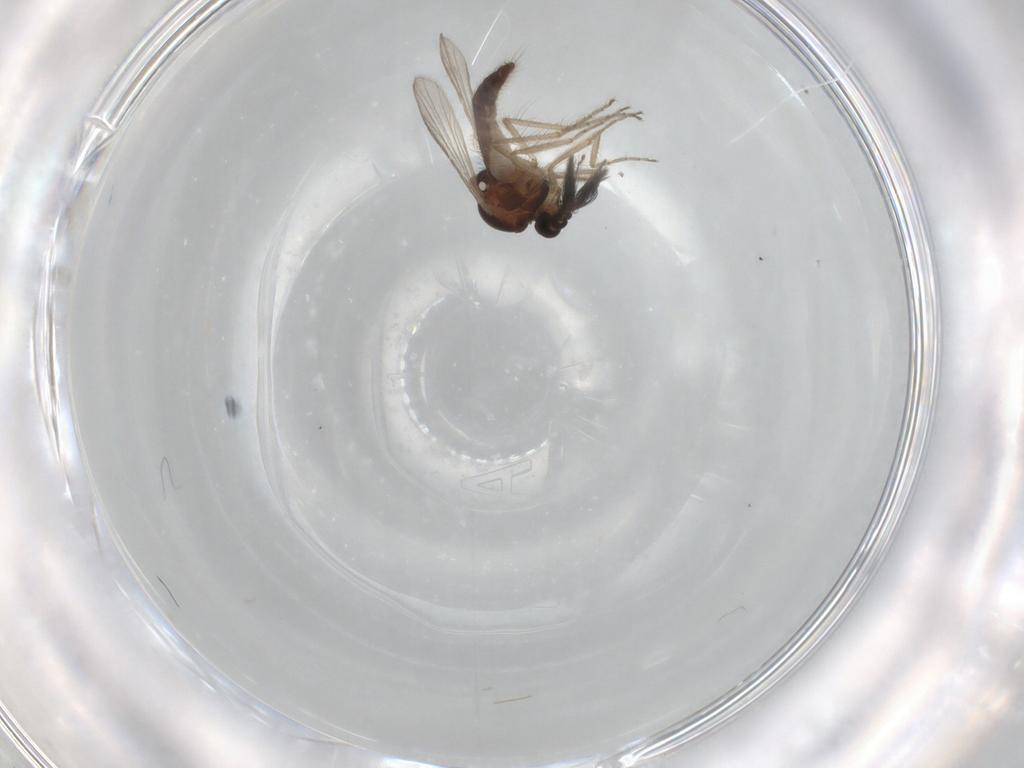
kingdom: Animalia
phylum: Arthropoda
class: Insecta
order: Diptera
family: Ceratopogonidae
